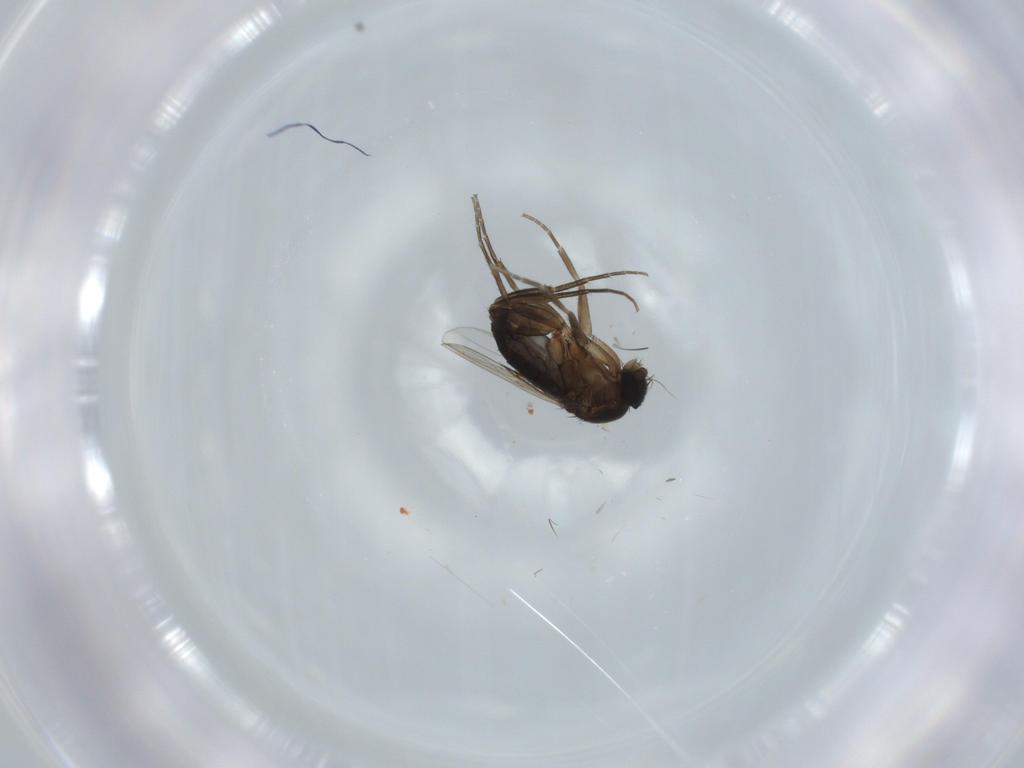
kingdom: Animalia
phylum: Arthropoda
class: Insecta
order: Diptera
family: Phoridae
